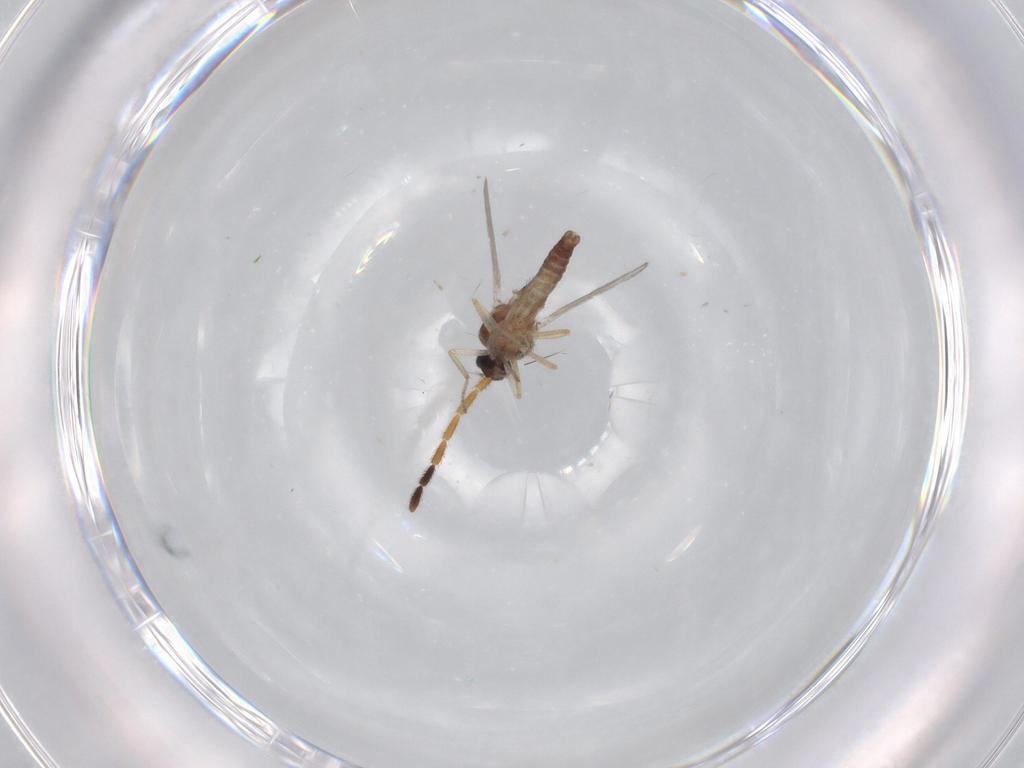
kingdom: Animalia
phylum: Arthropoda
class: Insecta
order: Diptera
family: Ceratopogonidae
